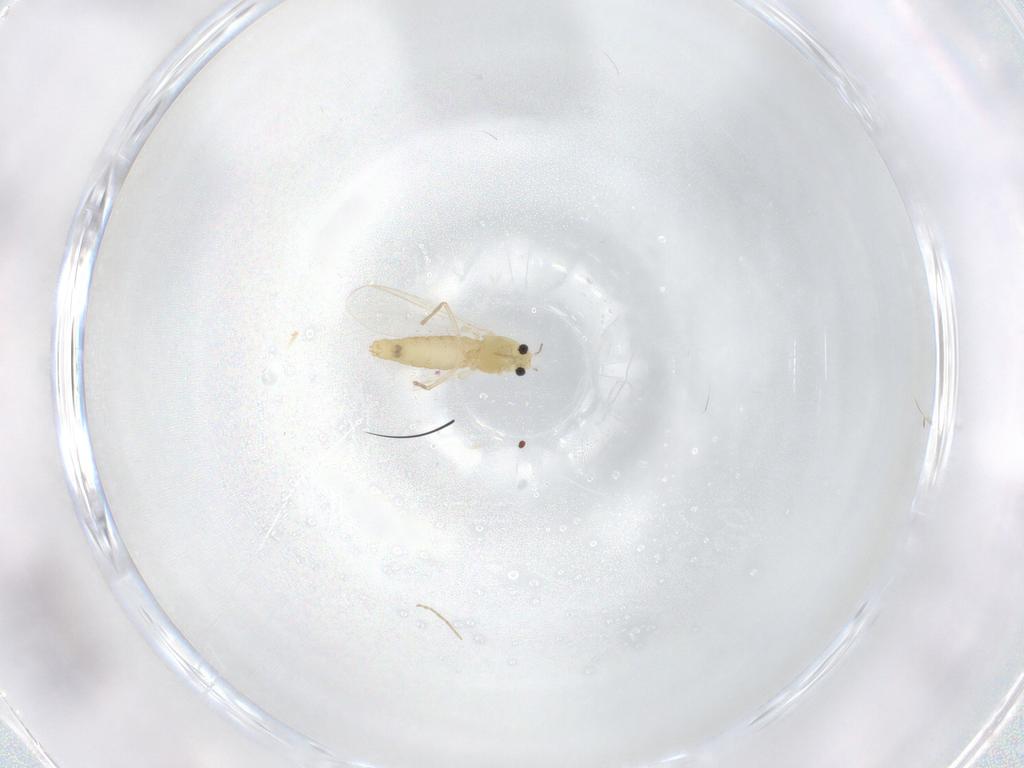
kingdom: Animalia
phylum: Arthropoda
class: Insecta
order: Diptera
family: Chironomidae
